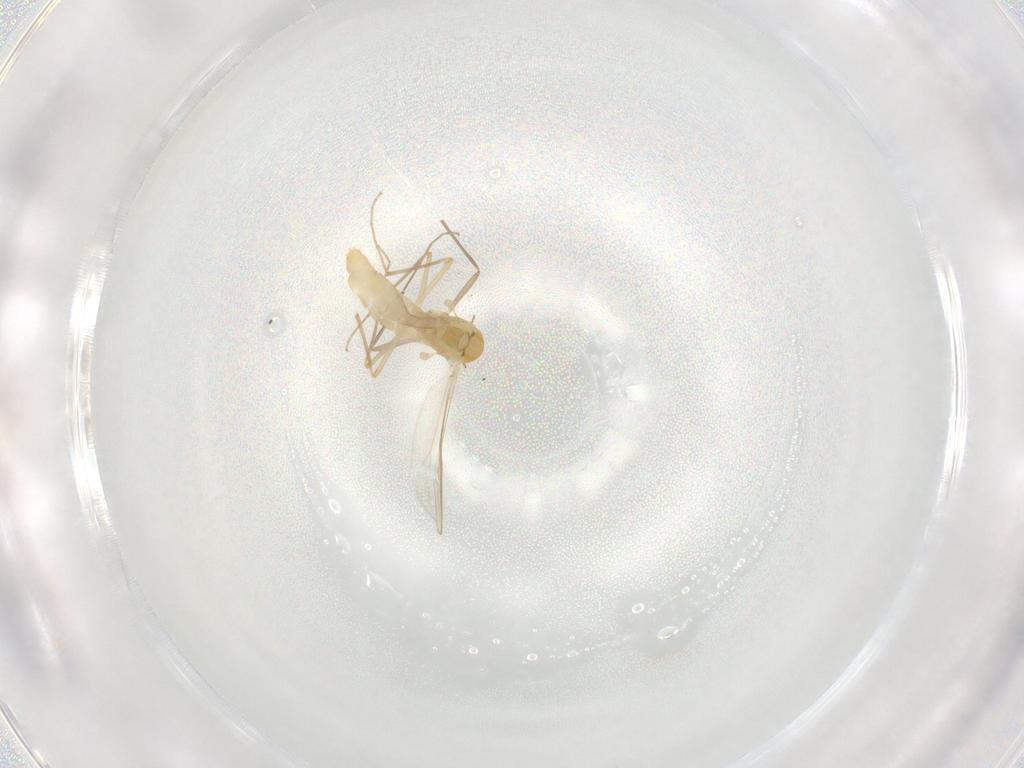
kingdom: Animalia
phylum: Arthropoda
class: Insecta
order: Diptera
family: Chironomidae
